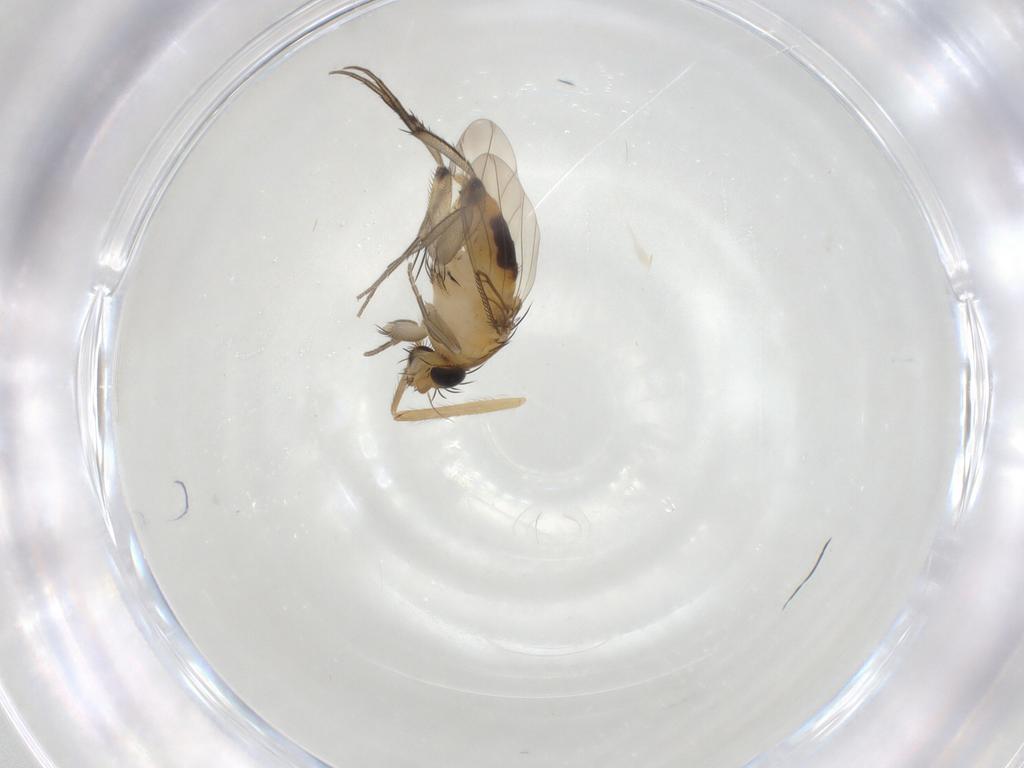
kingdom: Animalia
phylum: Arthropoda
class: Insecta
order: Diptera
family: Phoridae
